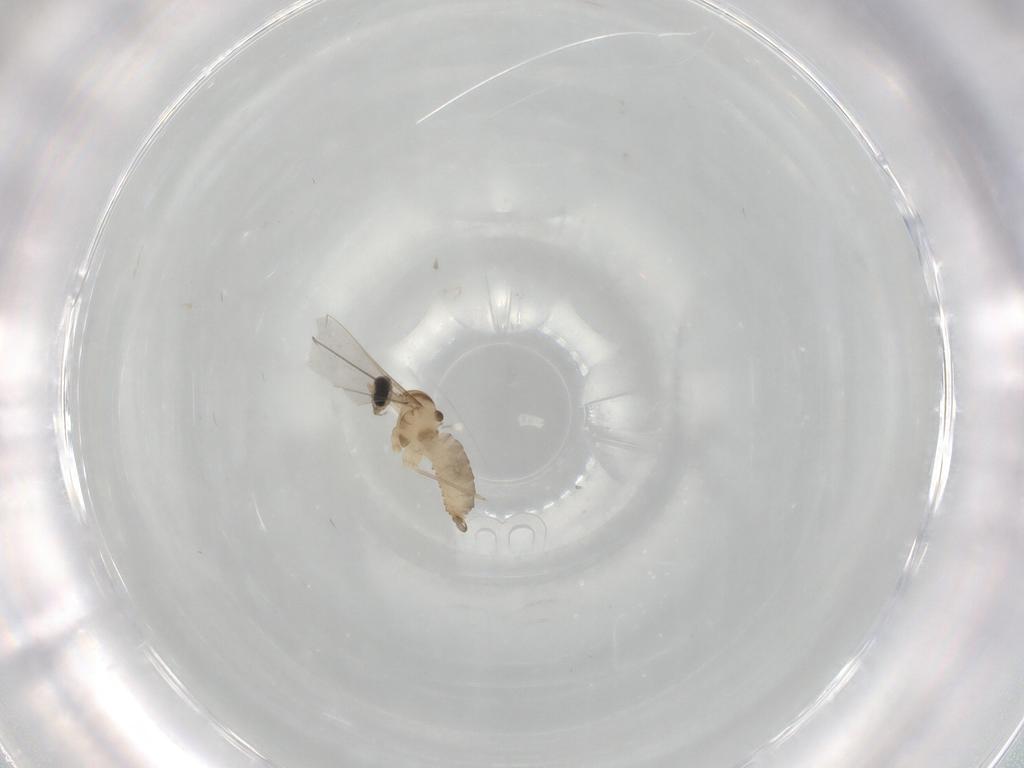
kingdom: Animalia
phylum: Arthropoda
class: Insecta
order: Diptera
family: Cecidomyiidae
